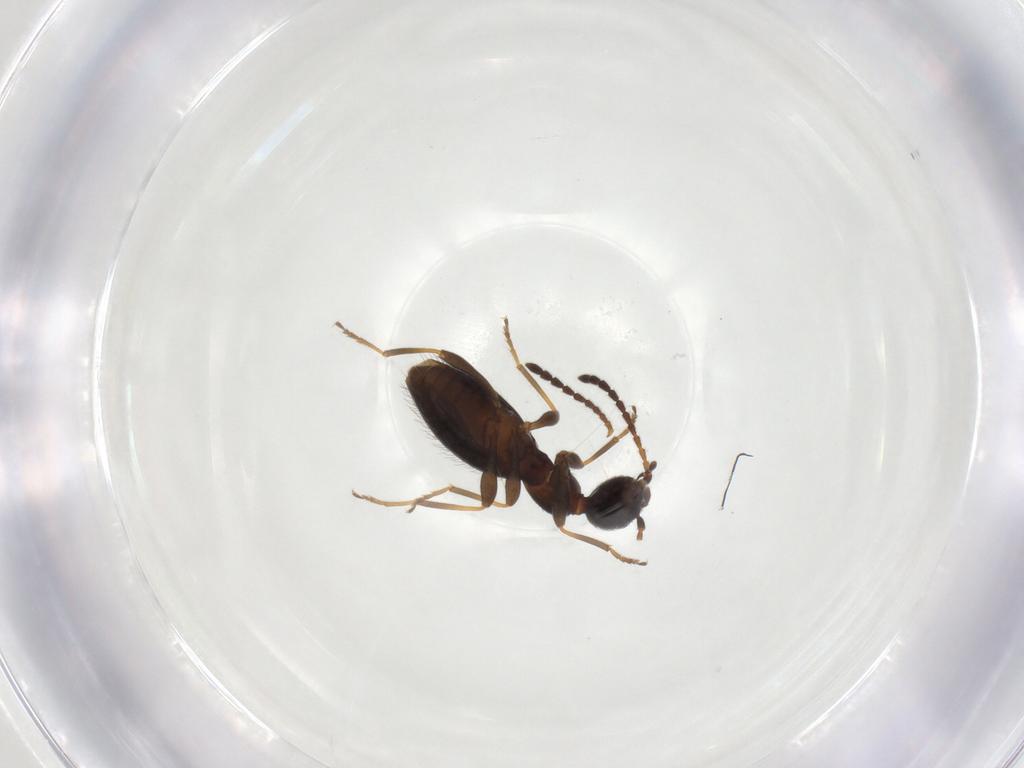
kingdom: Animalia
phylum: Arthropoda
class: Insecta
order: Coleoptera
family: Anthicidae
